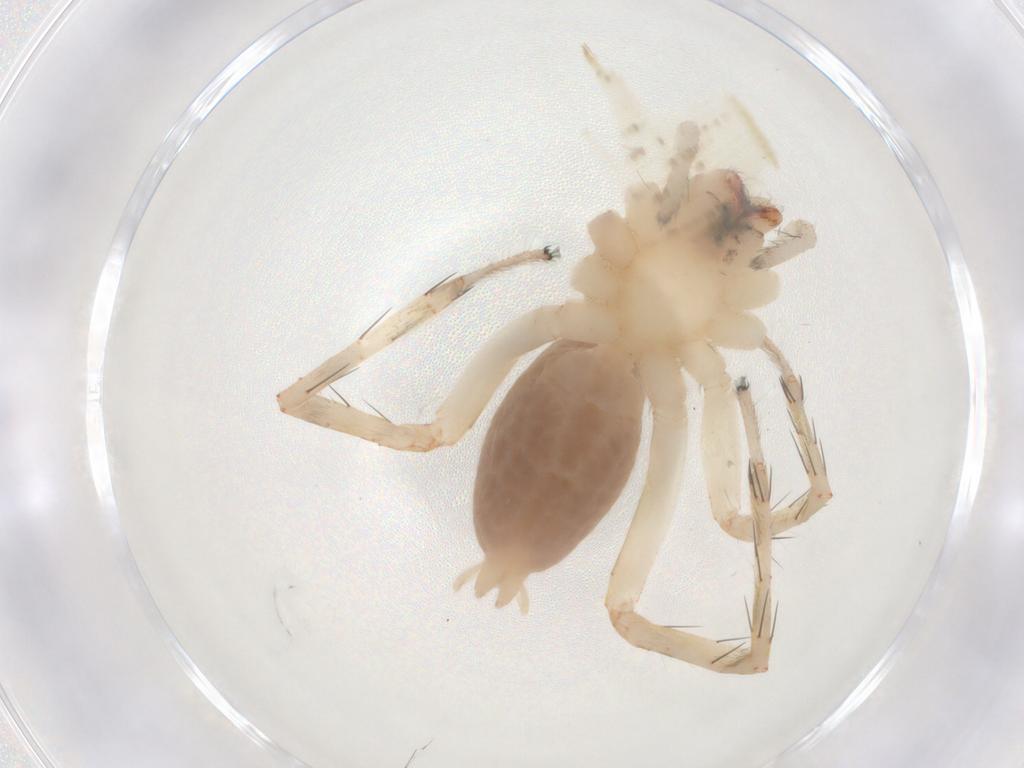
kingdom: Animalia
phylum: Arthropoda
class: Arachnida
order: Araneae
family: Anyphaenidae
